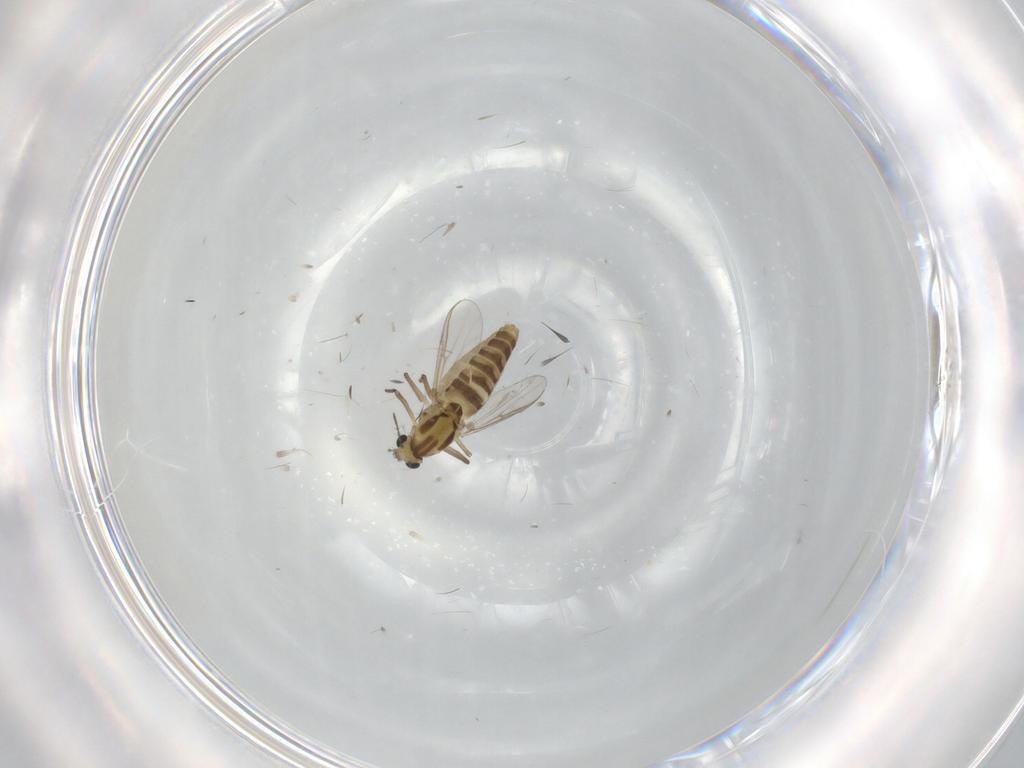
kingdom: Animalia
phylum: Arthropoda
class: Insecta
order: Diptera
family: Chironomidae
